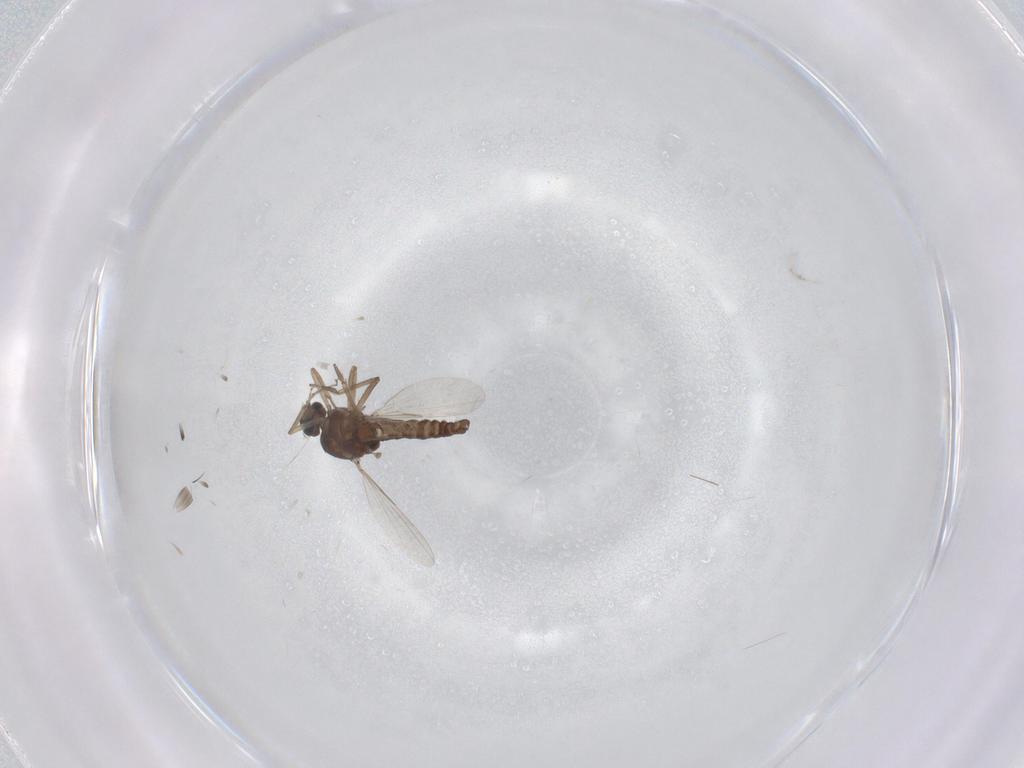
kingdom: Animalia
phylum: Arthropoda
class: Insecta
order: Diptera
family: Ceratopogonidae
